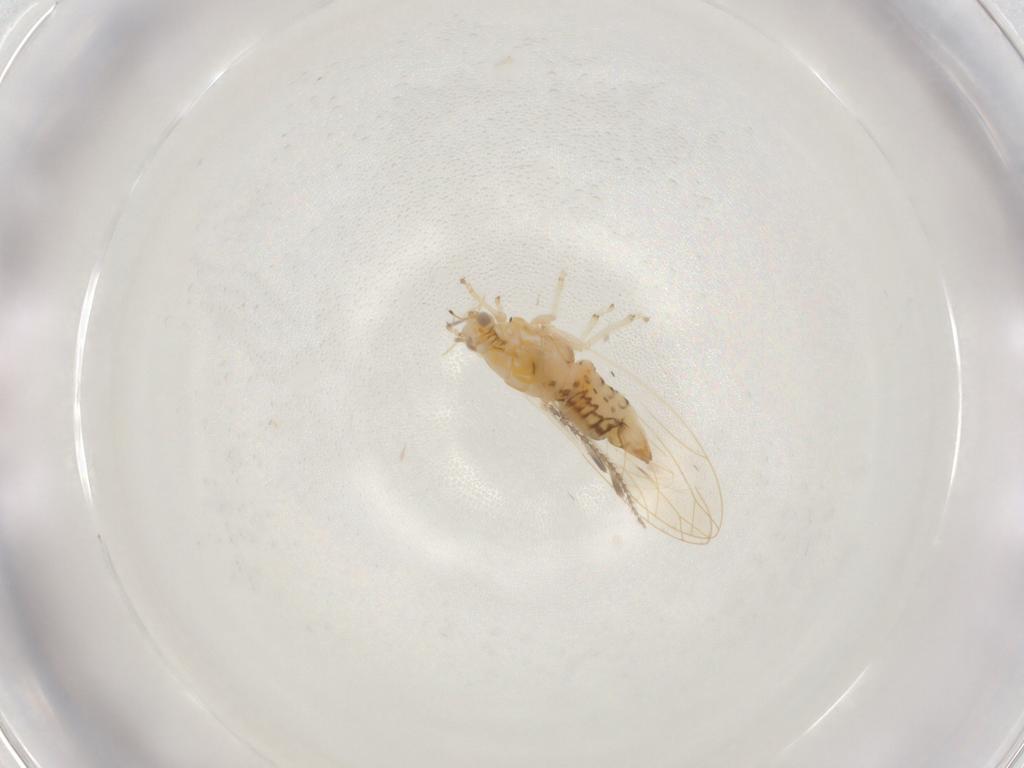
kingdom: Animalia
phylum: Arthropoda
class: Insecta
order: Hemiptera
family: Triozidae
